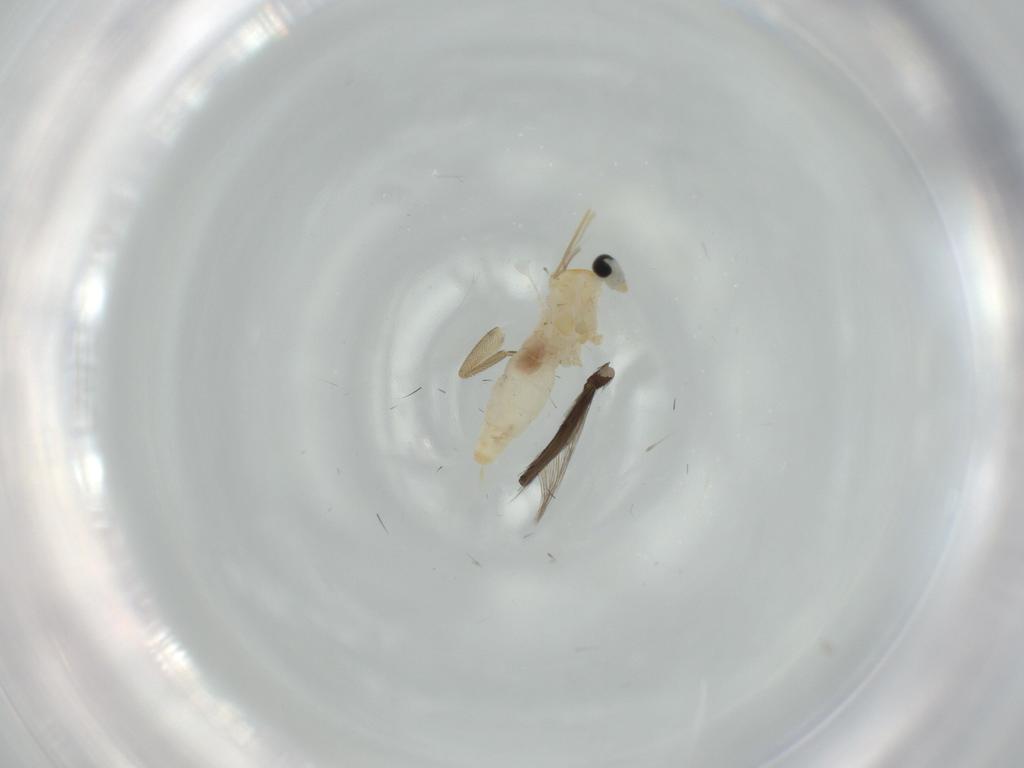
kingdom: Animalia
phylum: Arthropoda
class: Insecta
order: Diptera
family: Cecidomyiidae
